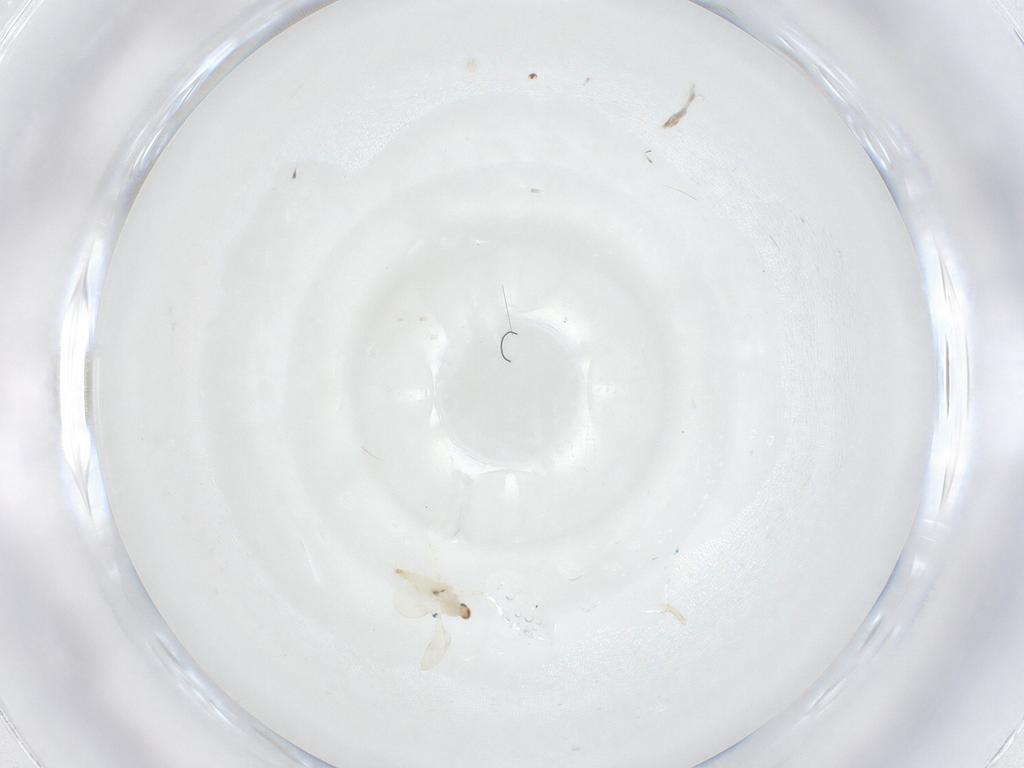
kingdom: Animalia
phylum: Arthropoda
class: Insecta
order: Diptera
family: Cecidomyiidae
